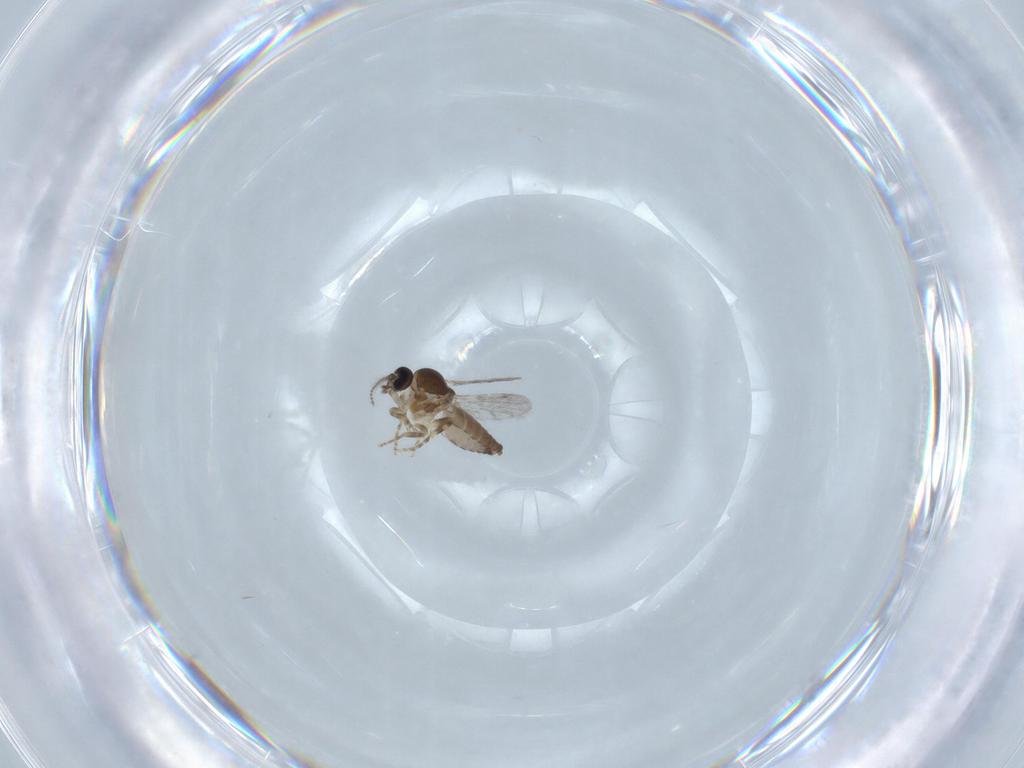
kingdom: Animalia
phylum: Arthropoda
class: Insecta
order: Diptera
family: Ceratopogonidae
